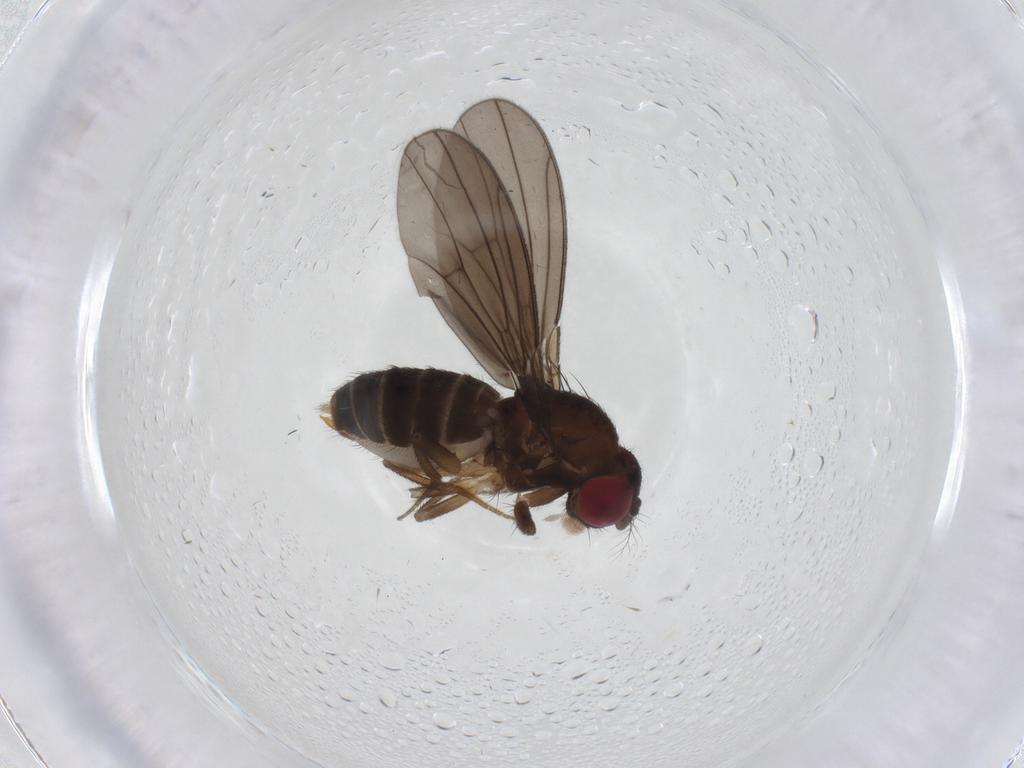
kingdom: Animalia
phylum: Arthropoda
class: Insecta
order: Diptera
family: Drosophilidae
